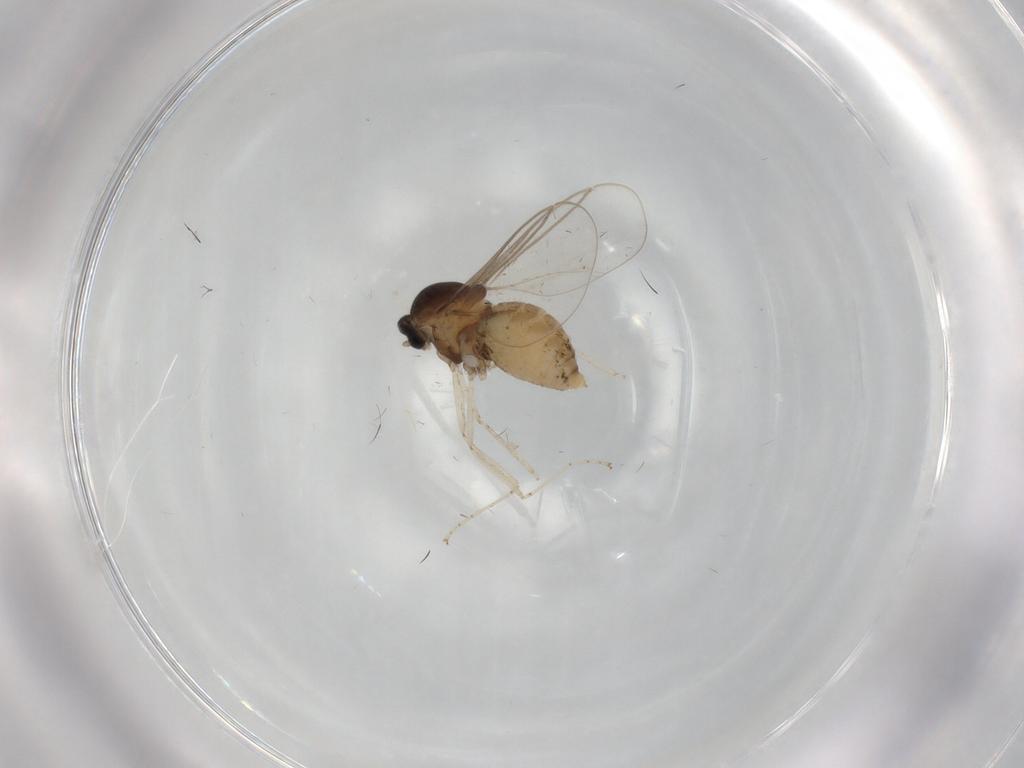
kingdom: Animalia
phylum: Arthropoda
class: Insecta
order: Diptera
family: Cecidomyiidae
